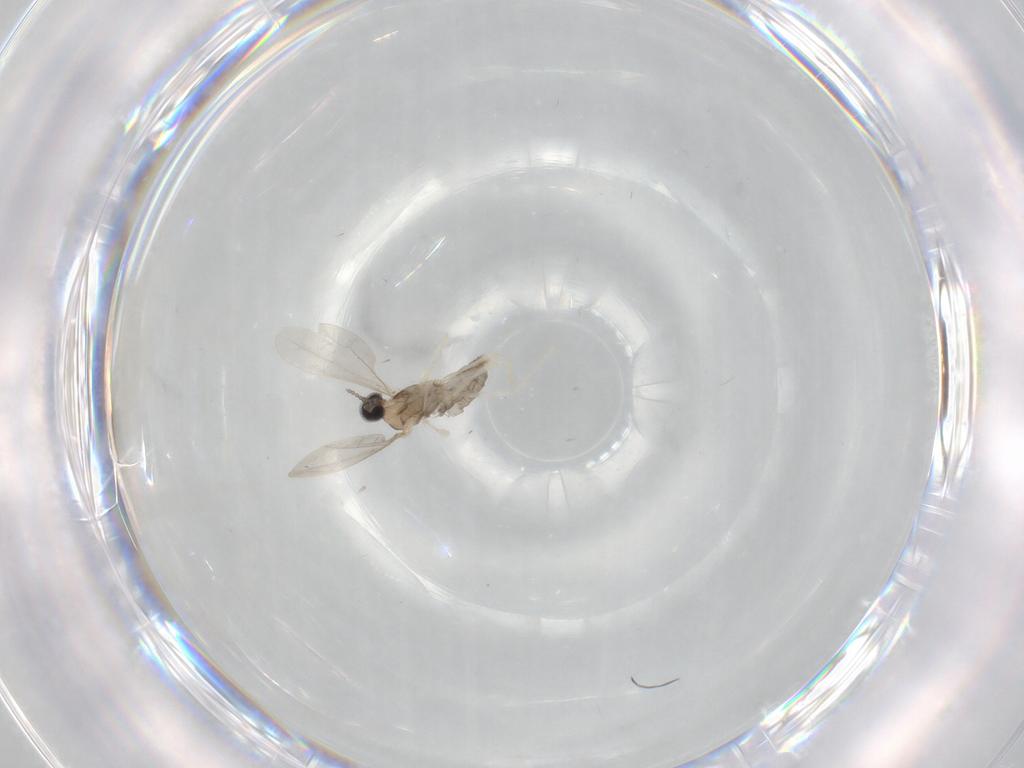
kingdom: Animalia
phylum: Arthropoda
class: Insecta
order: Diptera
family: Cecidomyiidae
